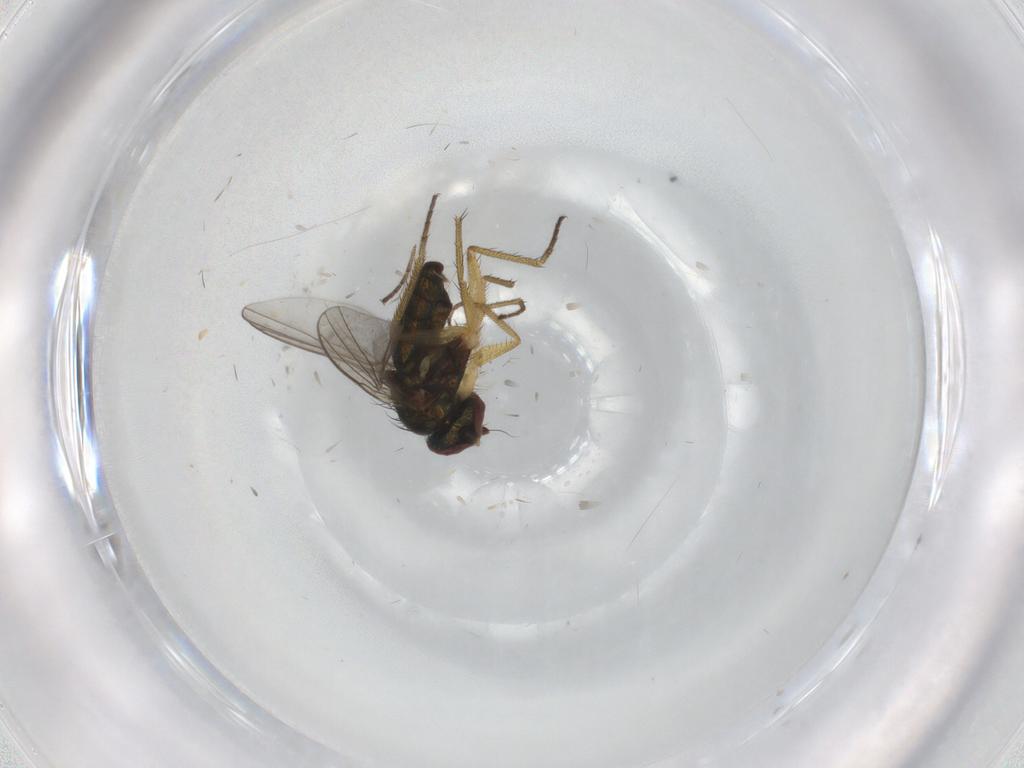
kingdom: Animalia
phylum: Arthropoda
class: Insecta
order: Diptera
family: Dolichopodidae
